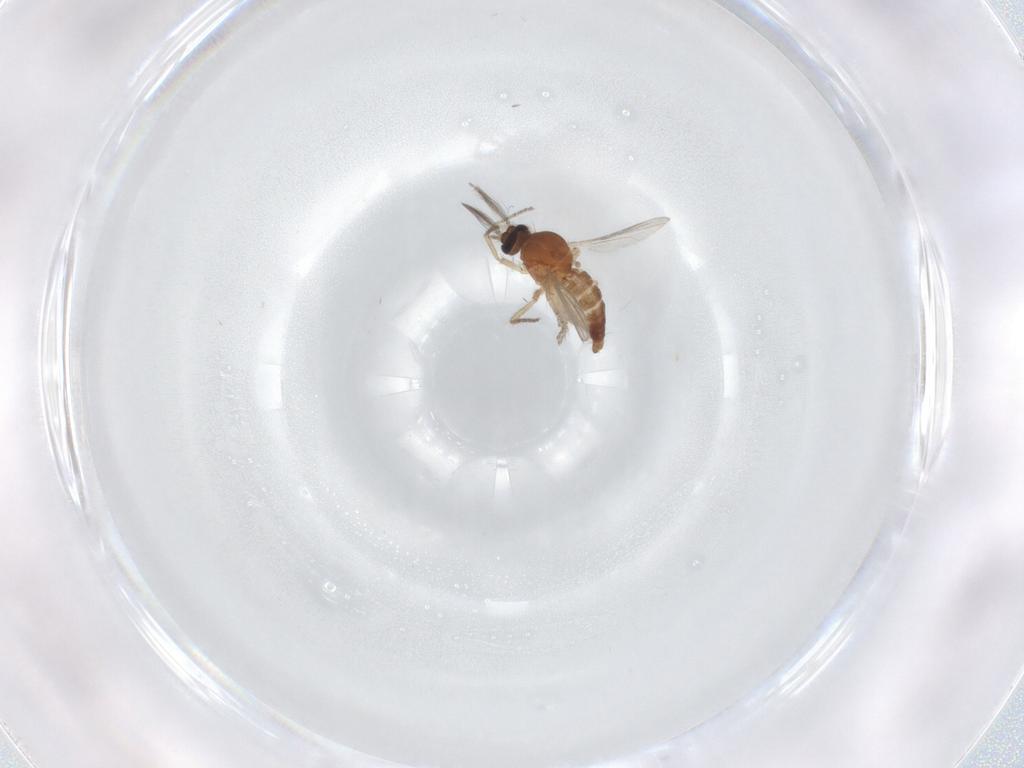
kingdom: Animalia
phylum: Arthropoda
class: Insecta
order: Diptera
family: Ceratopogonidae
